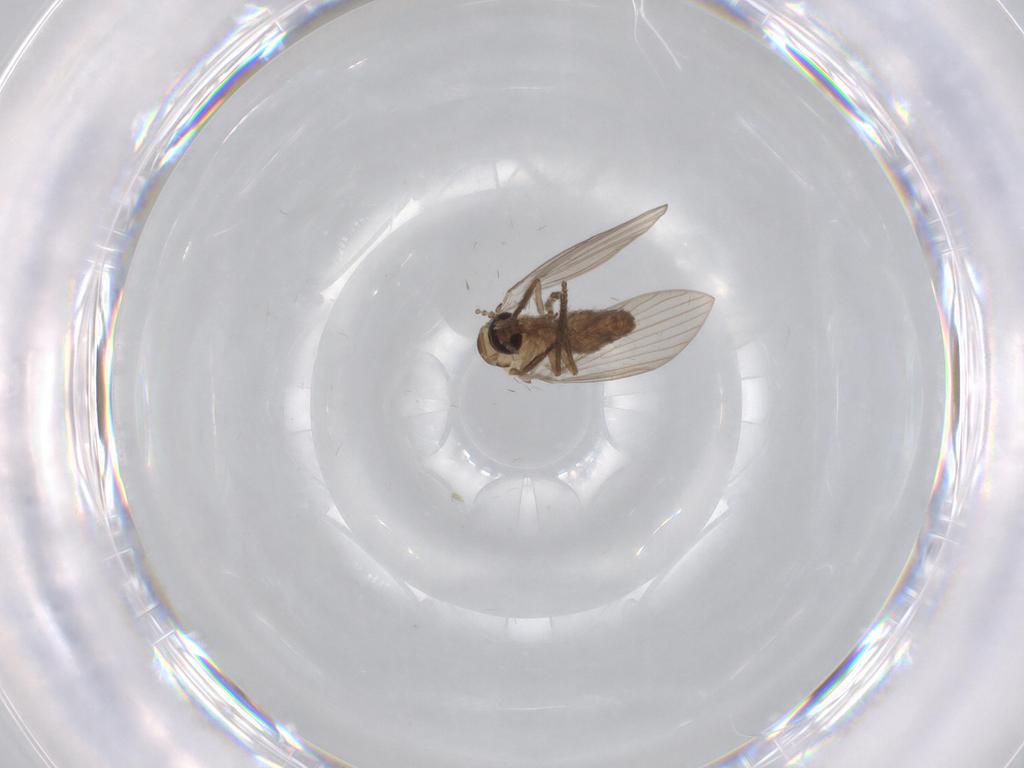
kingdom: Animalia
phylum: Arthropoda
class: Insecta
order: Diptera
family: Psychodidae
